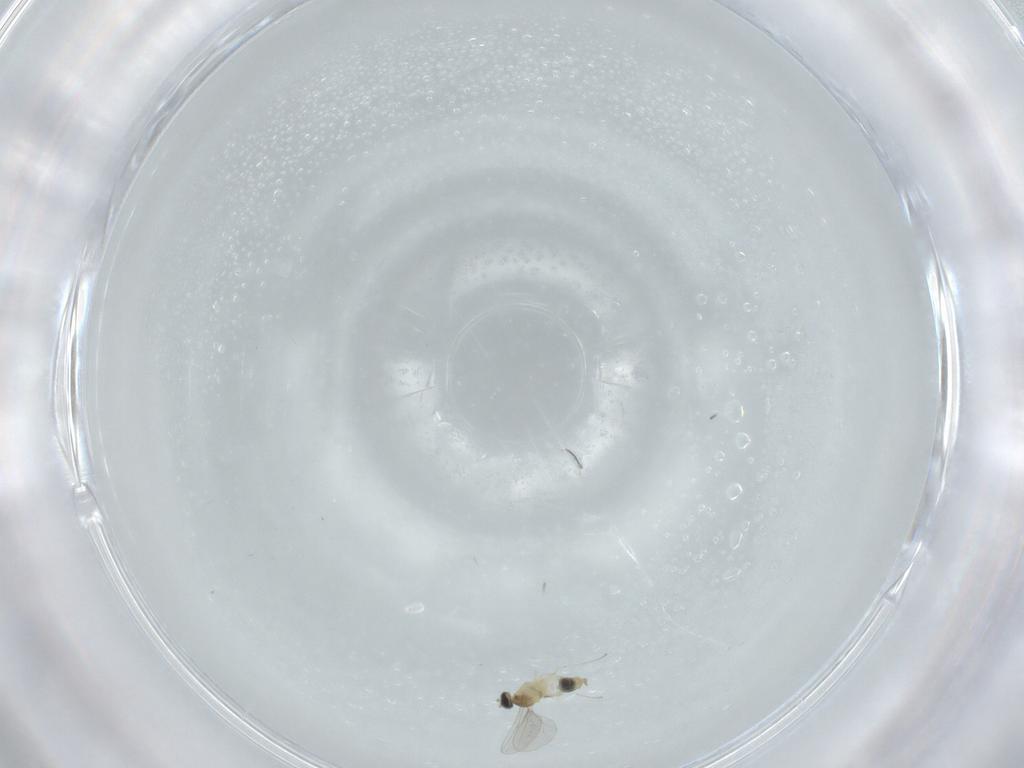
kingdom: Animalia
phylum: Arthropoda
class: Insecta
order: Diptera
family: Cecidomyiidae
